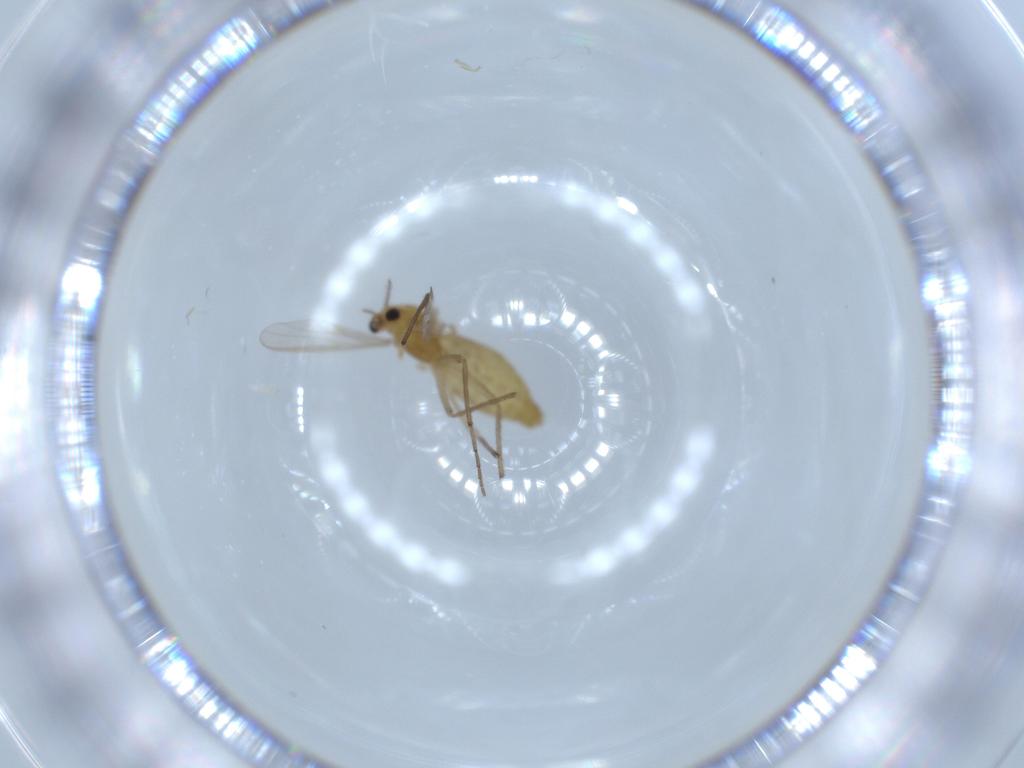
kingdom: Animalia
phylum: Arthropoda
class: Insecta
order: Diptera
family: Chironomidae
